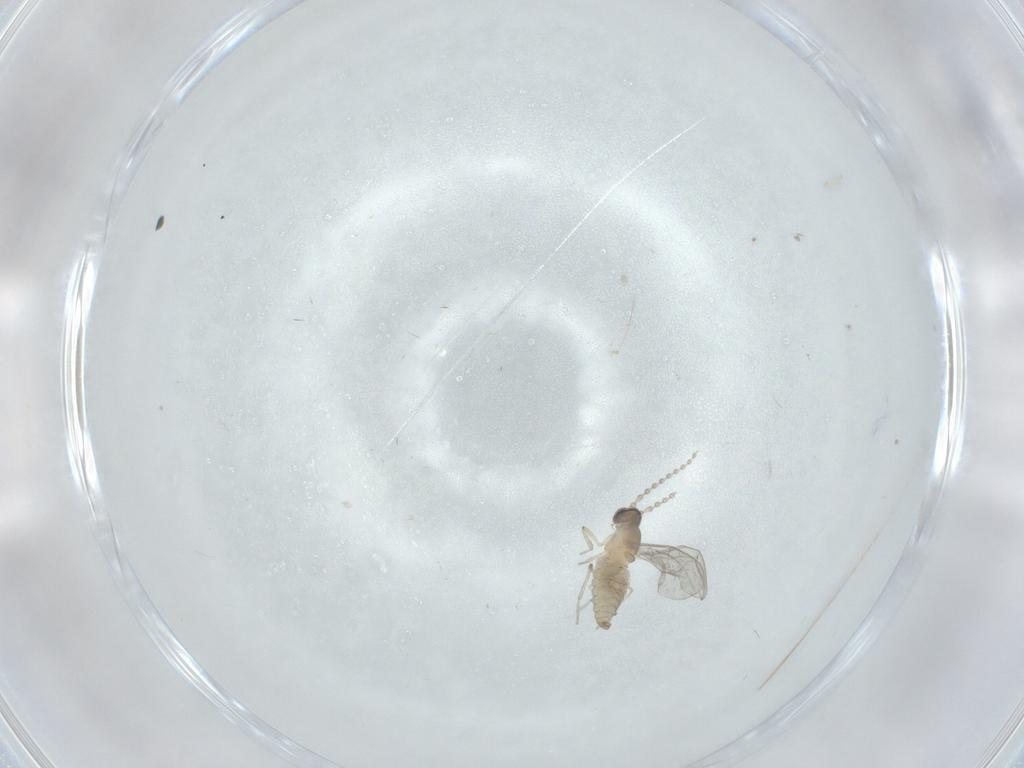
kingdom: Animalia
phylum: Arthropoda
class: Insecta
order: Diptera
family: Cecidomyiidae
